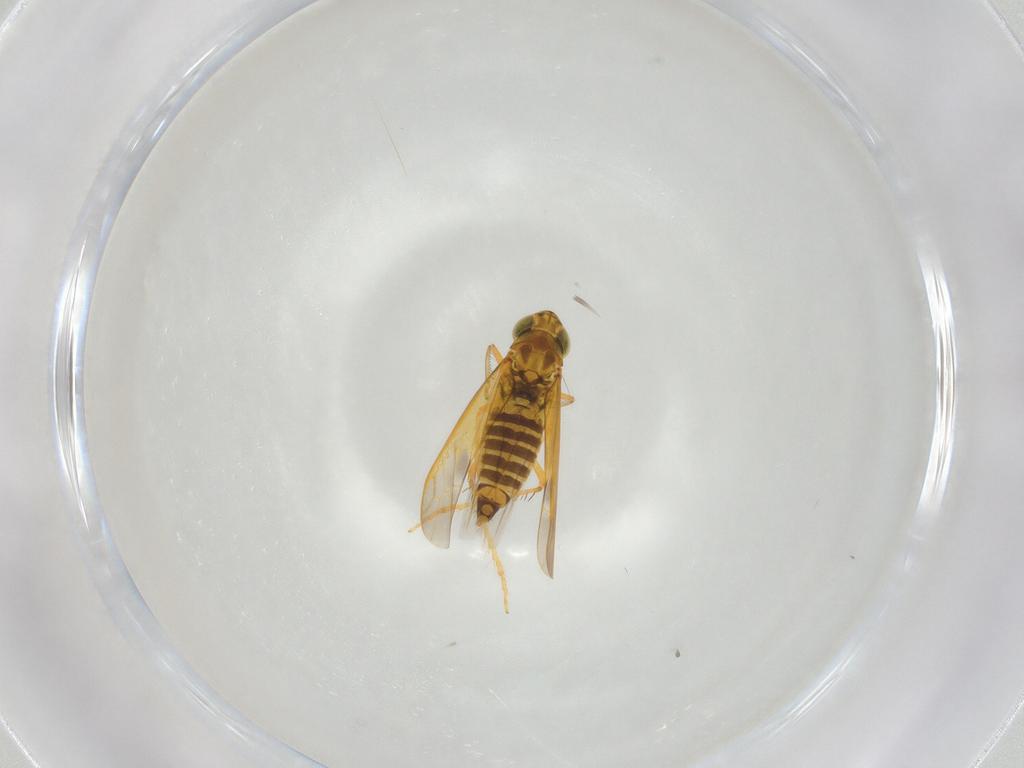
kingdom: Animalia
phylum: Arthropoda
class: Insecta
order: Hemiptera
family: Cicadellidae
